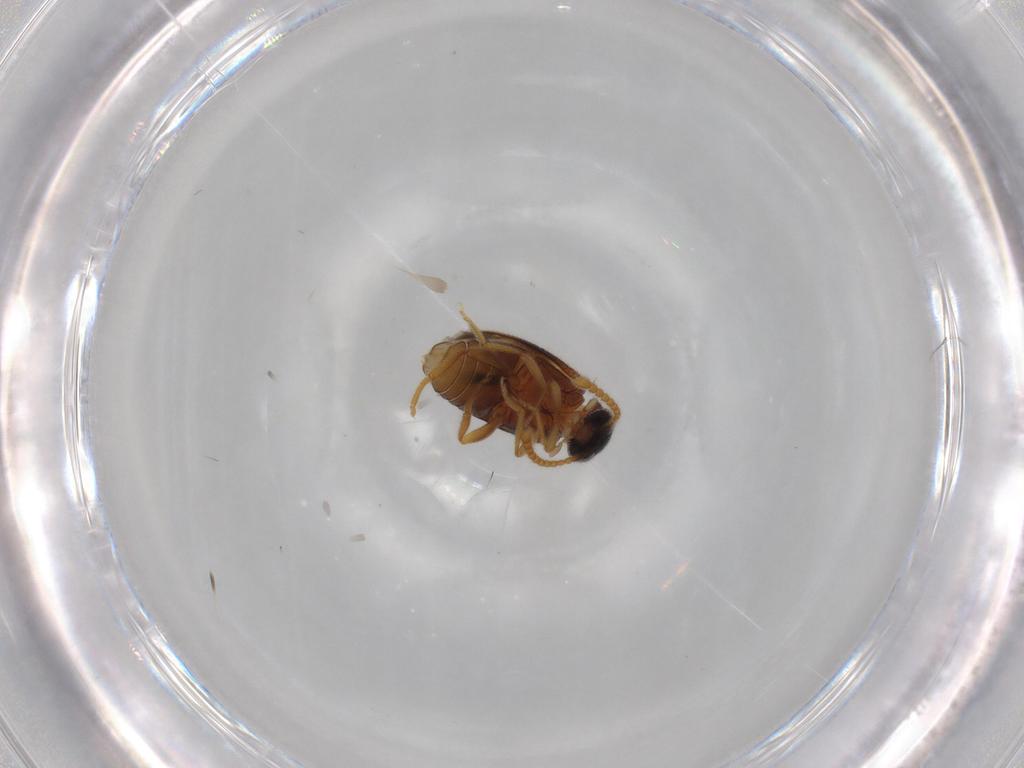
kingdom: Animalia
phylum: Arthropoda
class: Insecta
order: Coleoptera
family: Aderidae
